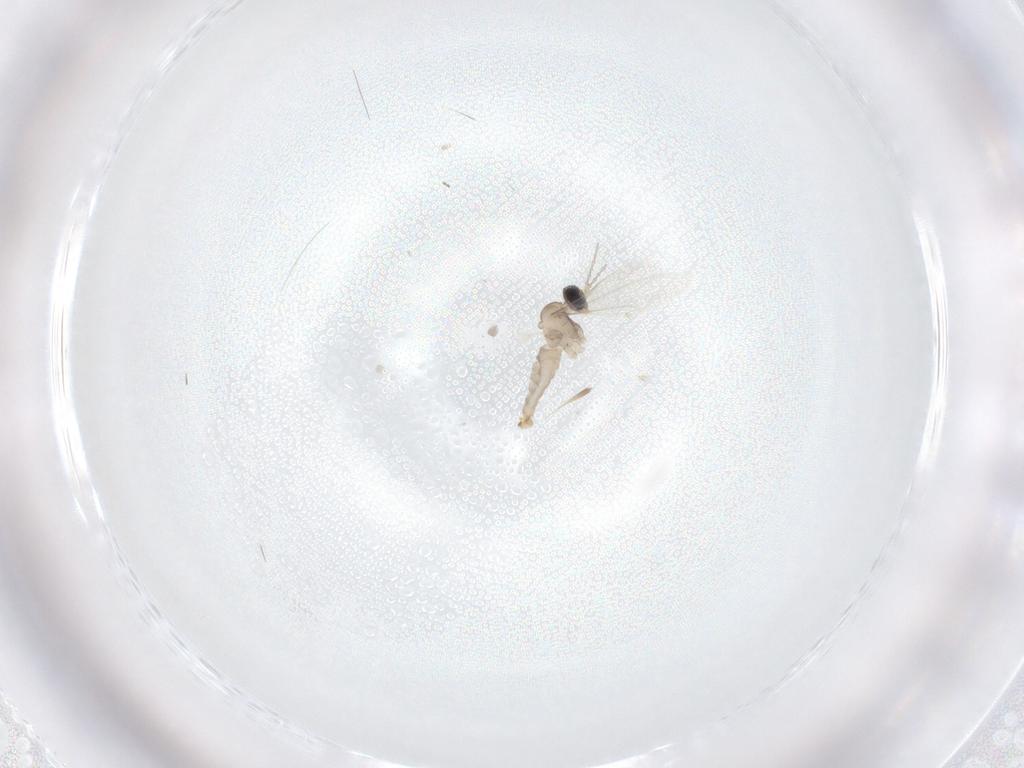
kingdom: Animalia
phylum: Arthropoda
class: Insecta
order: Diptera
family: Cecidomyiidae
